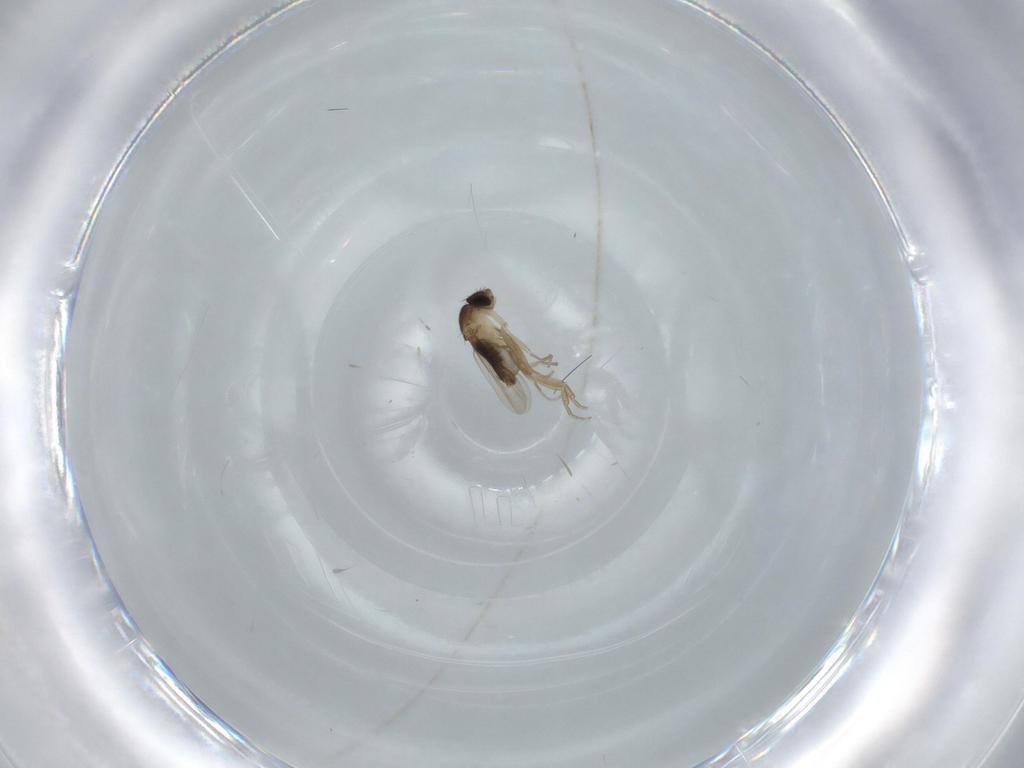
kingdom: Animalia
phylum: Arthropoda
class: Insecta
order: Diptera
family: Phoridae
